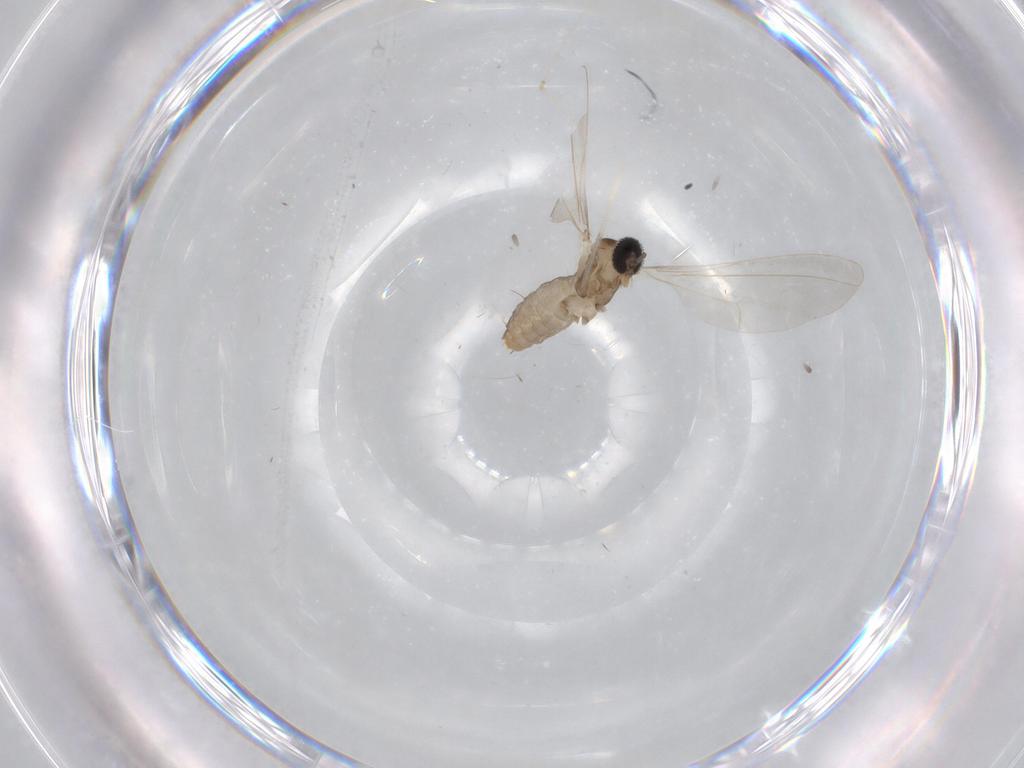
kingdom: Animalia
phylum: Arthropoda
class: Insecta
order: Diptera
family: Cecidomyiidae
